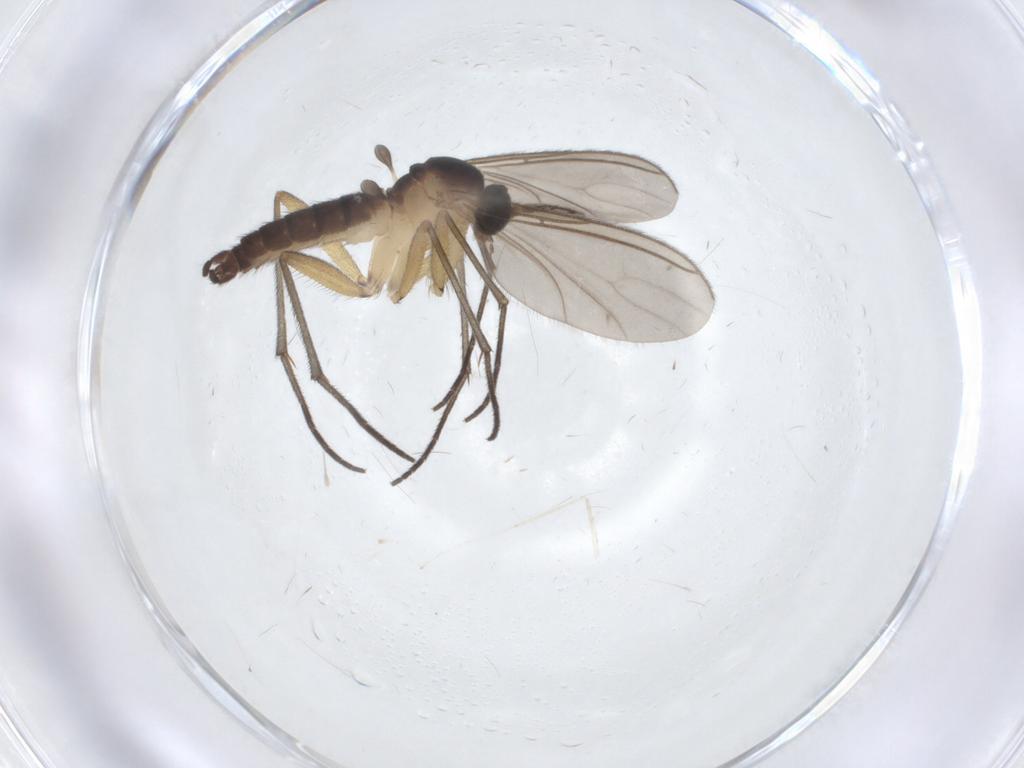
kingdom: Animalia
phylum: Arthropoda
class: Insecta
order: Diptera
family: Sciaridae
